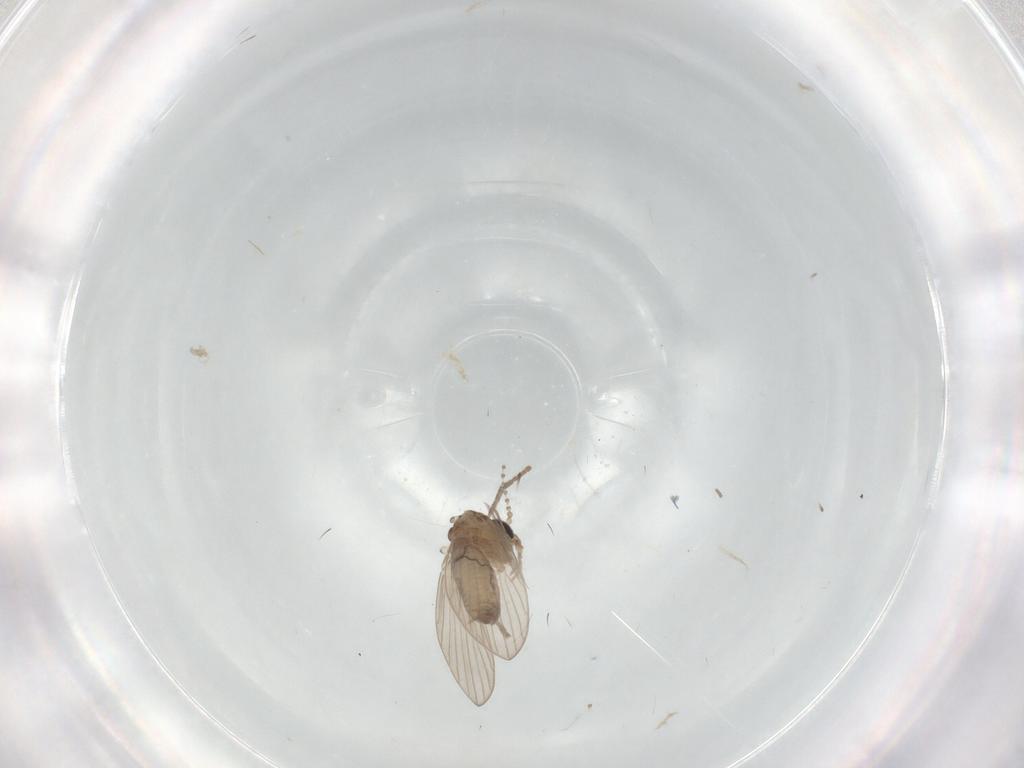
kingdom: Animalia
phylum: Arthropoda
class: Insecta
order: Diptera
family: Psychodidae
